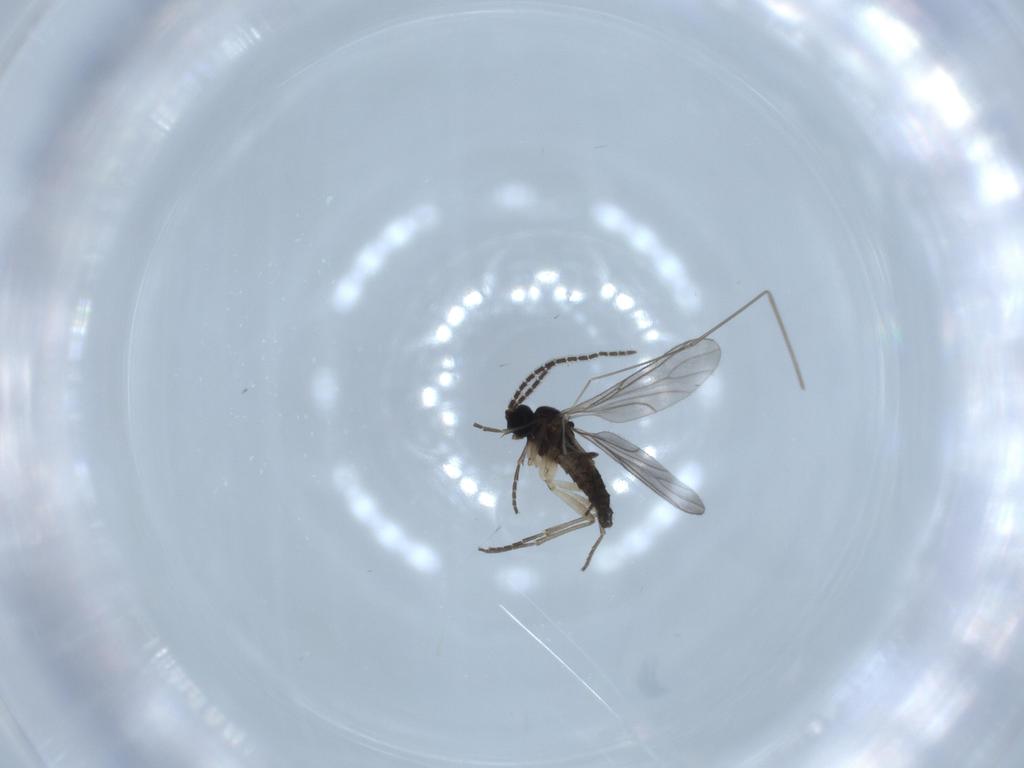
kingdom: Animalia
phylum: Arthropoda
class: Insecta
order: Diptera
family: Sciaridae
